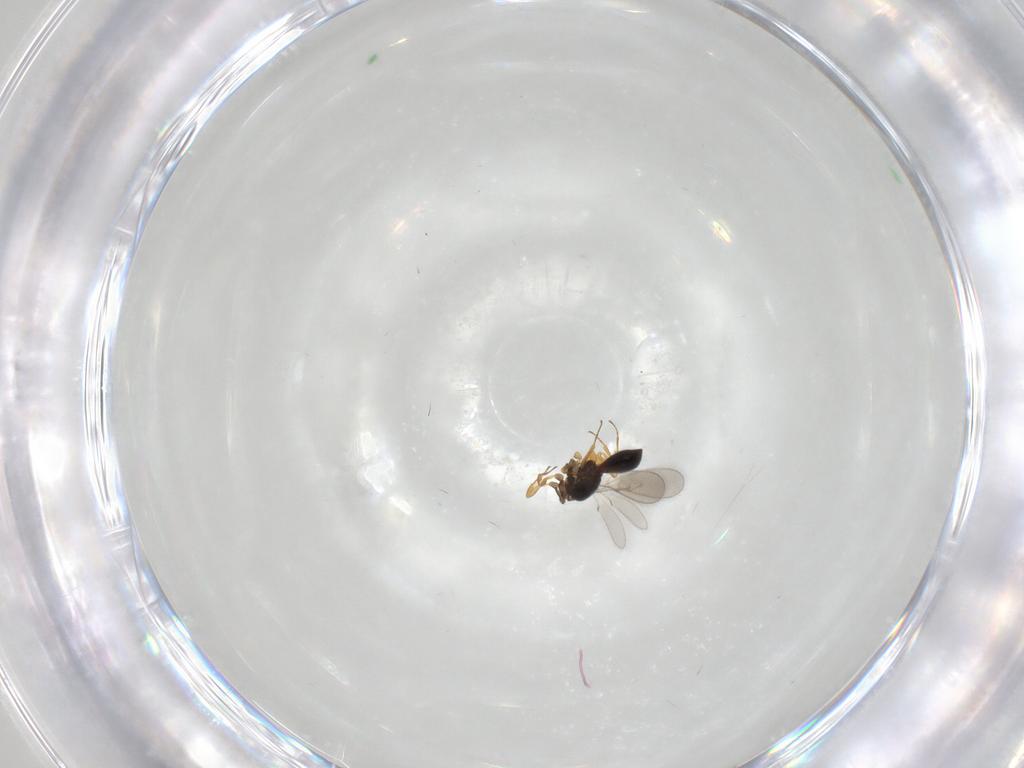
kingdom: Animalia
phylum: Arthropoda
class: Insecta
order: Hymenoptera
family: Scelionidae
